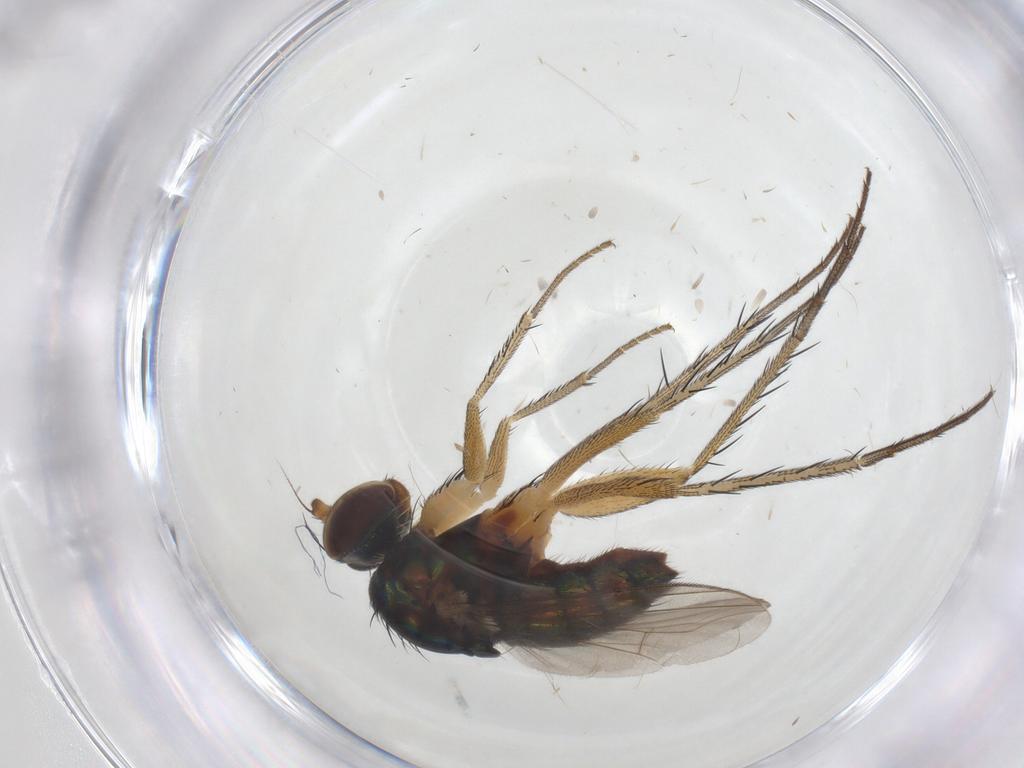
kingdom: Animalia
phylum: Arthropoda
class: Insecta
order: Diptera
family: Dolichopodidae
